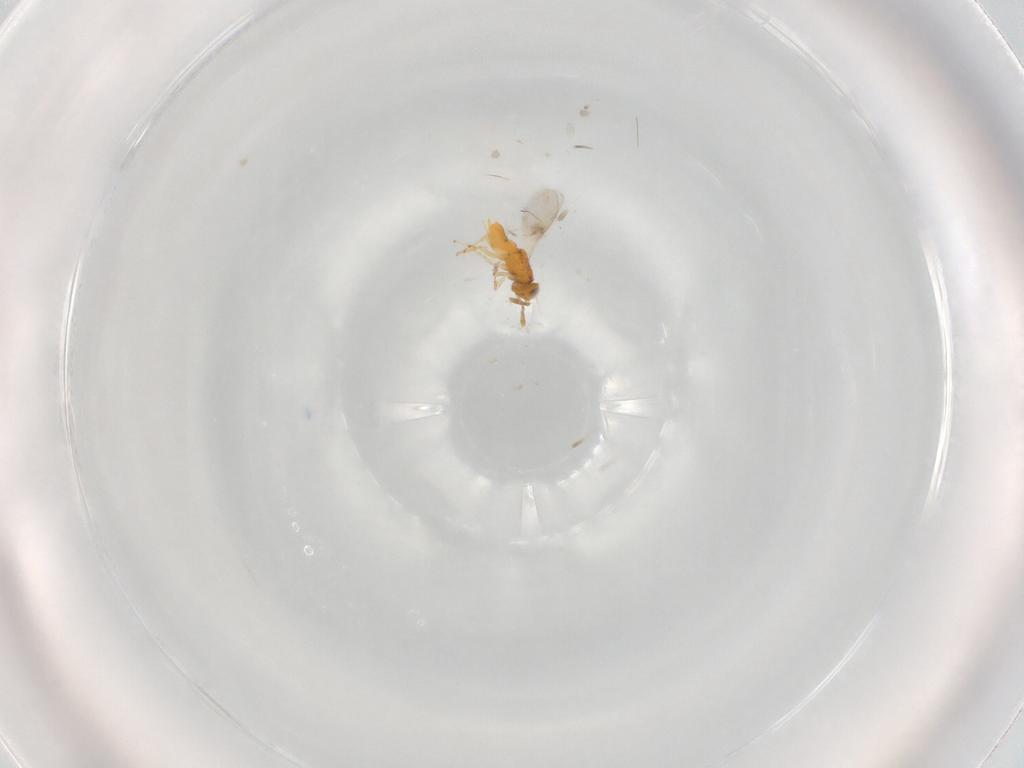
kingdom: Animalia
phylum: Arthropoda
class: Insecta
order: Hymenoptera
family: Encyrtidae
